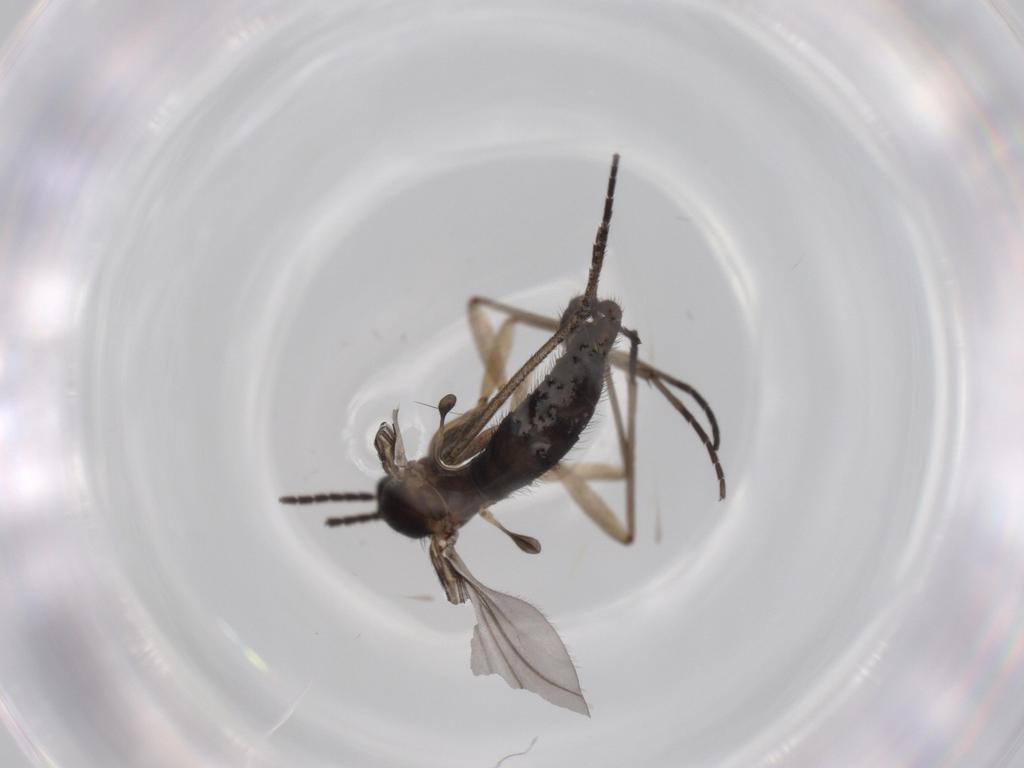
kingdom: Animalia
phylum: Arthropoda
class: Insecta
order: Diptera
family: Sciaridae
